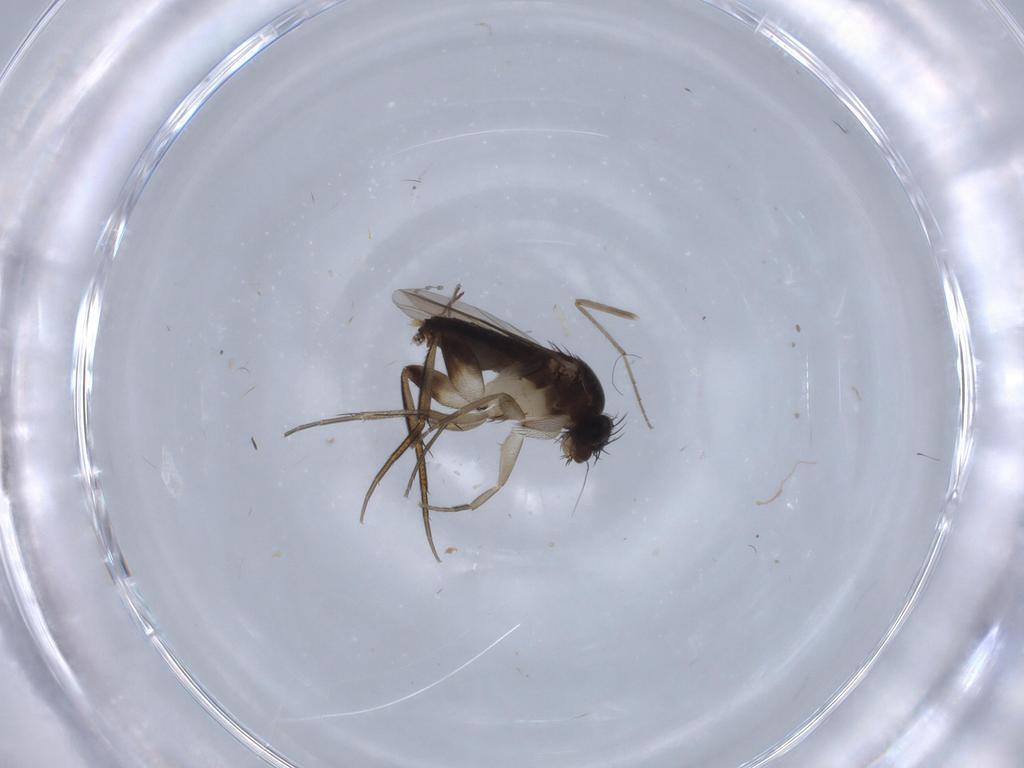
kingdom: Animalia
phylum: Arthropoda
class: Insecta
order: Diptera
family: Phoridae
